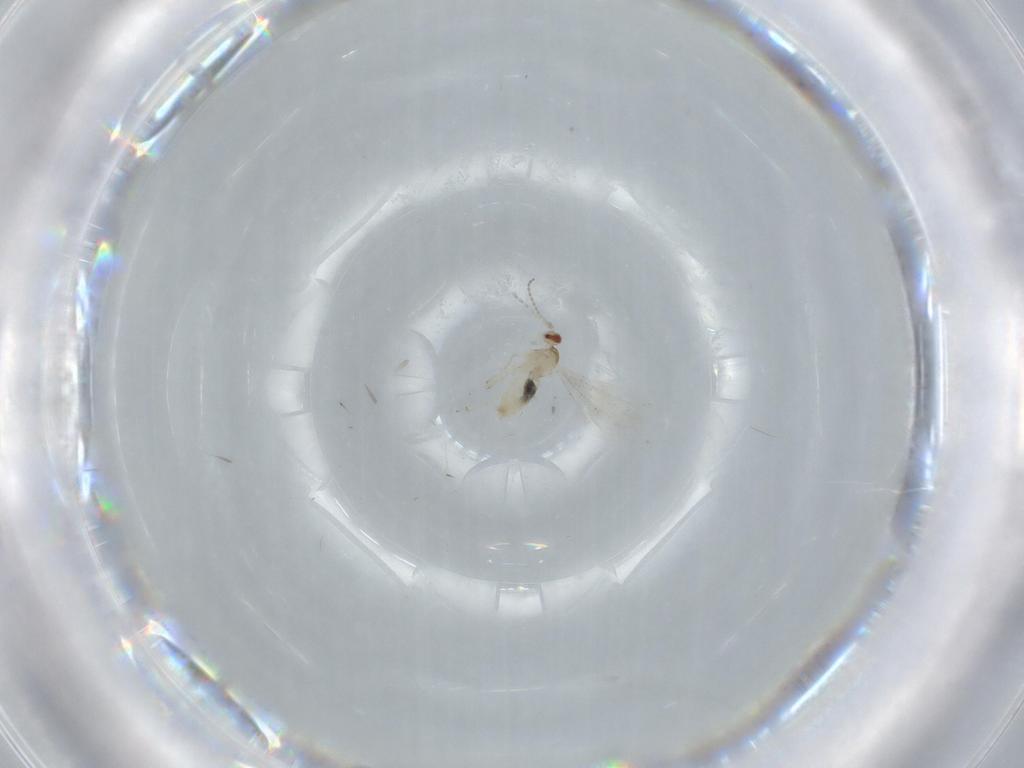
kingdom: Animalia
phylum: Arthropoda
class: Insecta
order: Diptera
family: Cecidomyiidae
